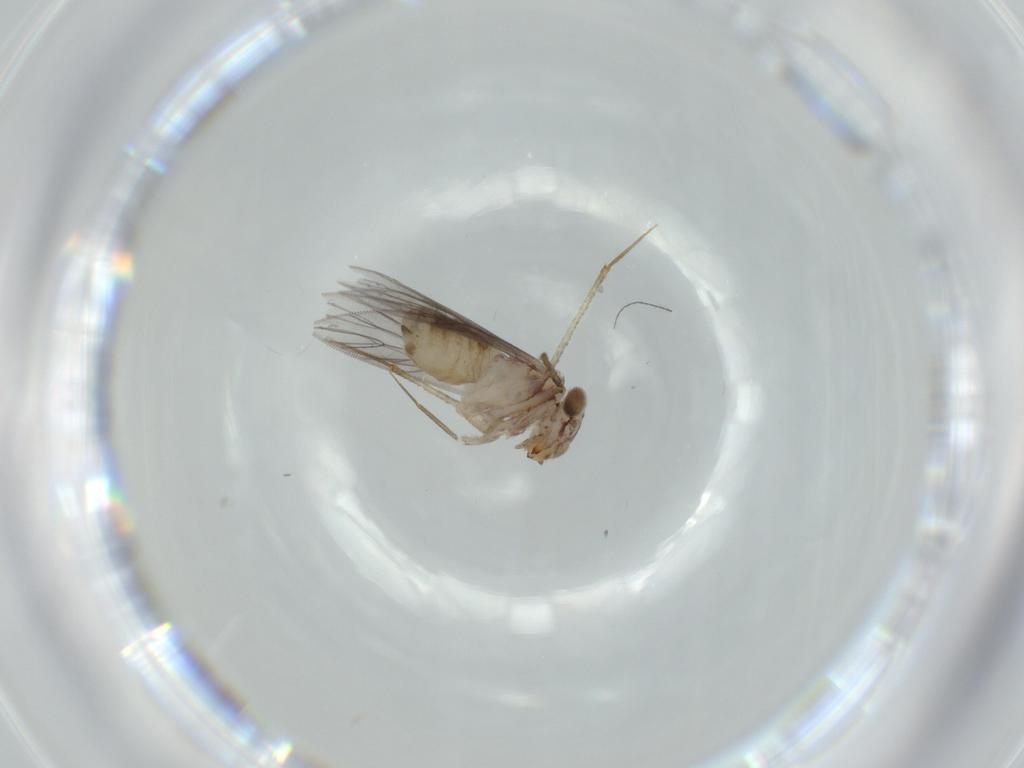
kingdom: Animalia
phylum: Arthropoda
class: Insecta
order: Psocodea
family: Lepidopsocidae
